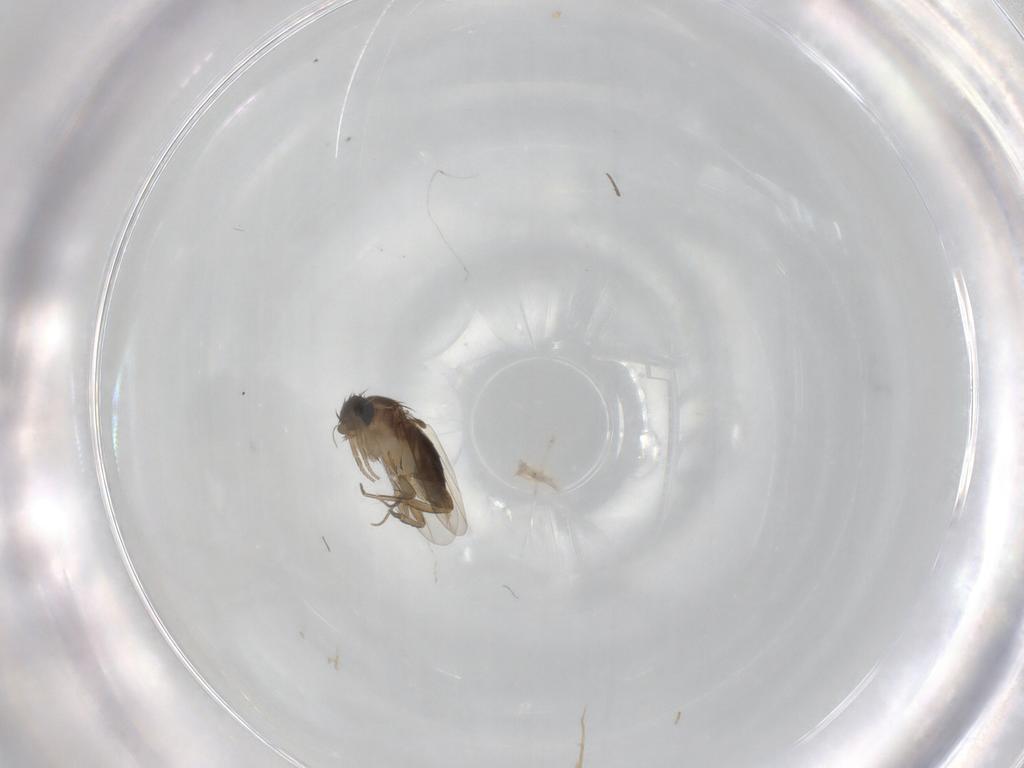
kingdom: Animalia
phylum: Arthropoda
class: Insecta
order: Diptera
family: Phoridae
